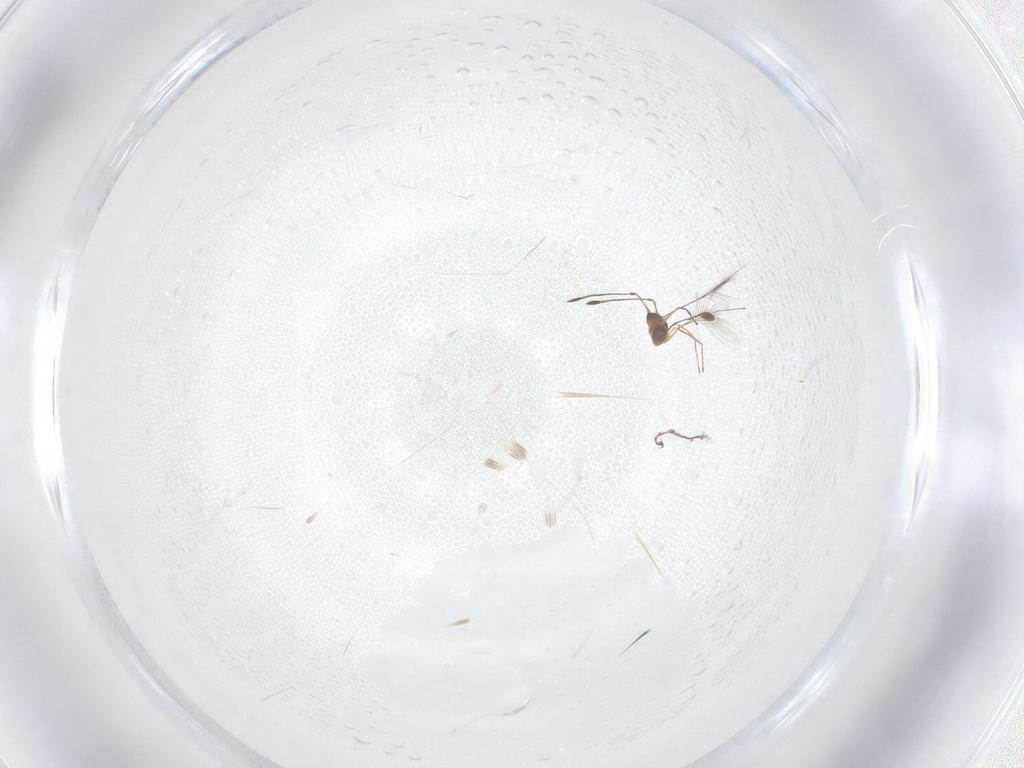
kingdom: Animalia
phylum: Arthropoda
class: Insecta
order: Hymenoptera
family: Mymaridae
